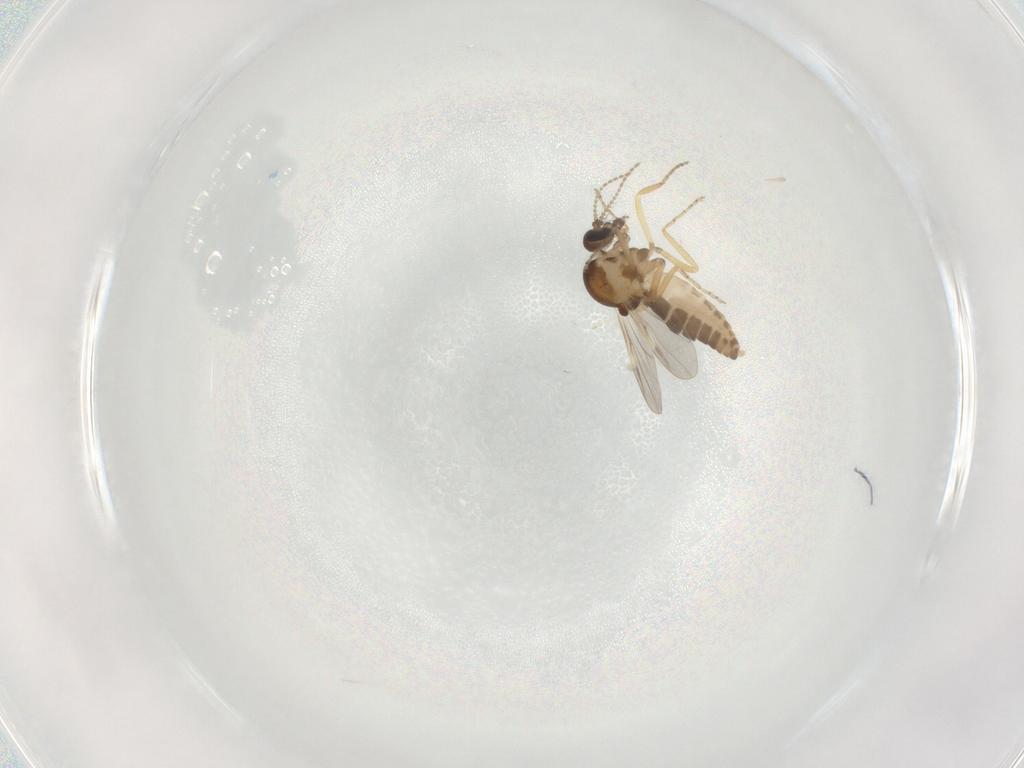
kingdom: Animalia
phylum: Arthropoda
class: Insecta
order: Diptera
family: Ceratopogonidae
